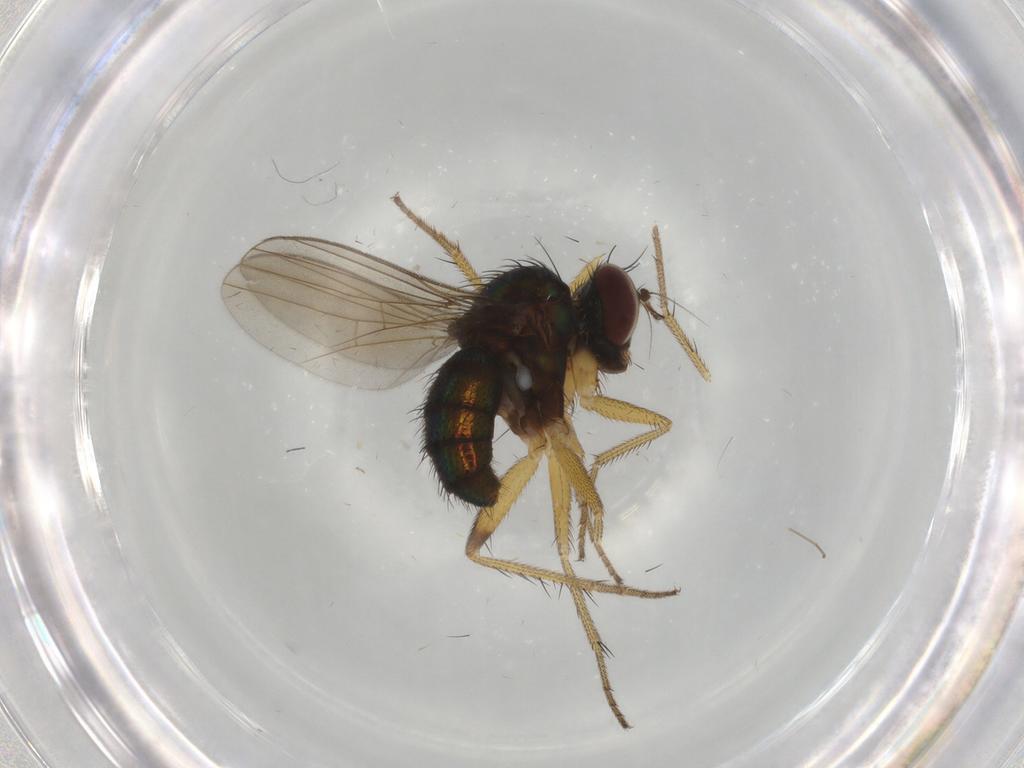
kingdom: Animalia
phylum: Arthropoda
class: Insecta
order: Diptera
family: Dolichopodidae
